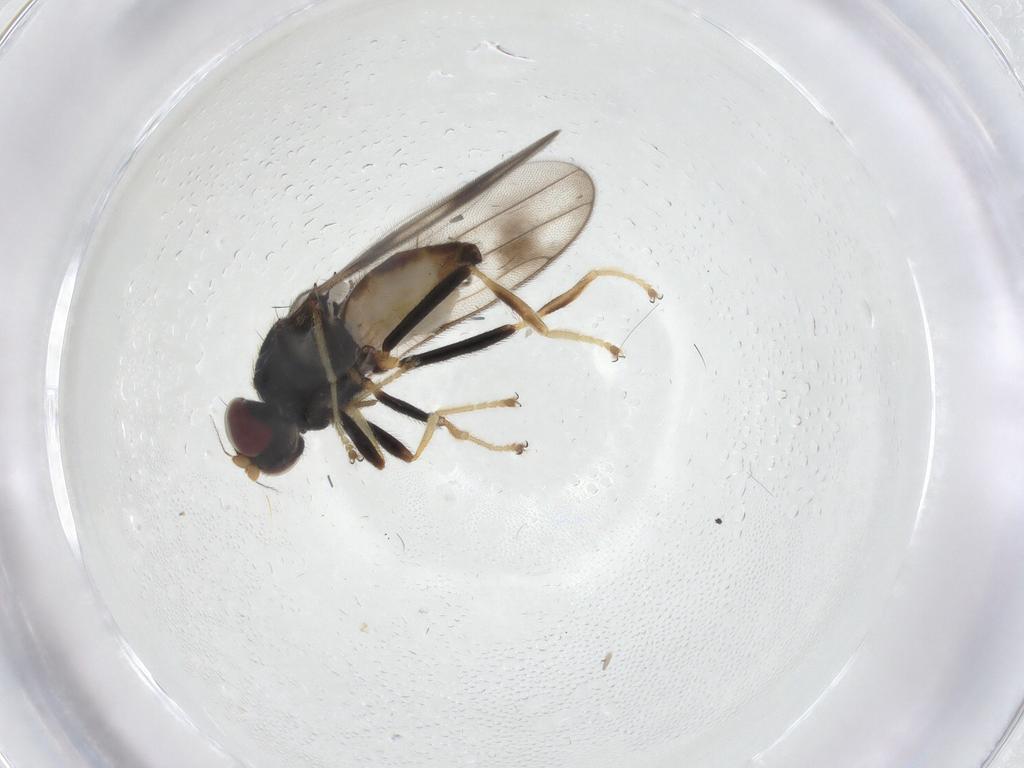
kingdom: Animalia
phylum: Arthropoda
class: Insecta
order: Diptera
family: Chloropidae
